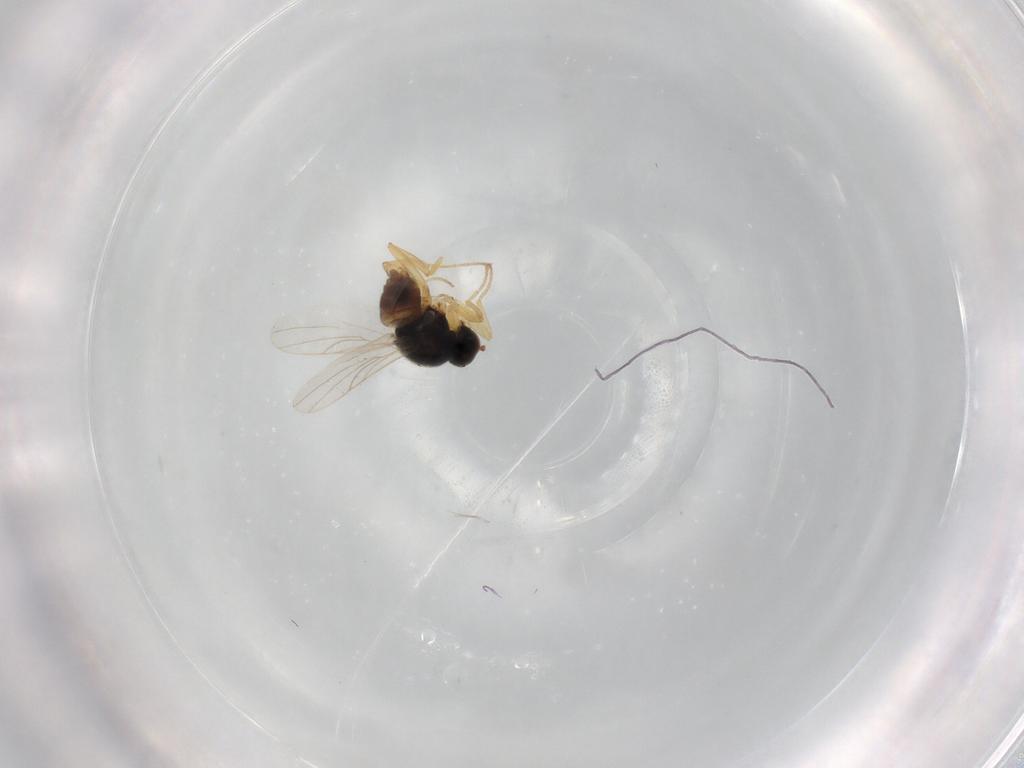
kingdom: Animalia
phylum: Arthropoda
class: Insecta
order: Diptera
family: Hybotidae
